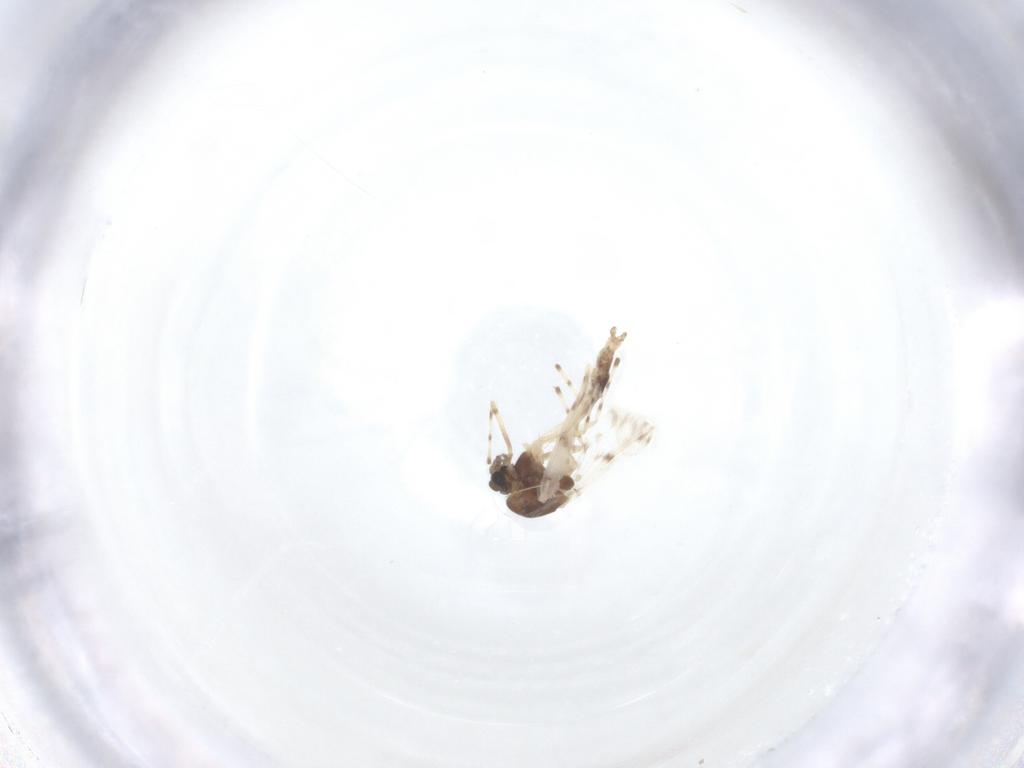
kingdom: Animalia
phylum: Arthropoda
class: Insecta
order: Diptera
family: Chironomidae
